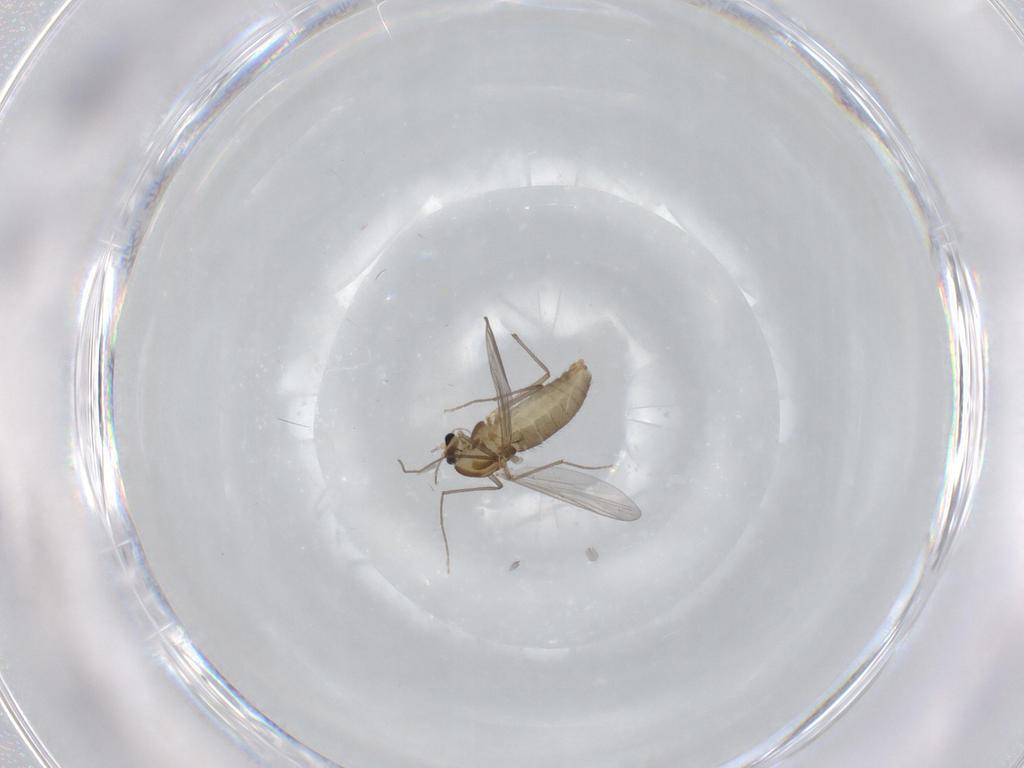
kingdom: Animalia
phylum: Arthropoda
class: Insecta
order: Diptera
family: Chironomidae
